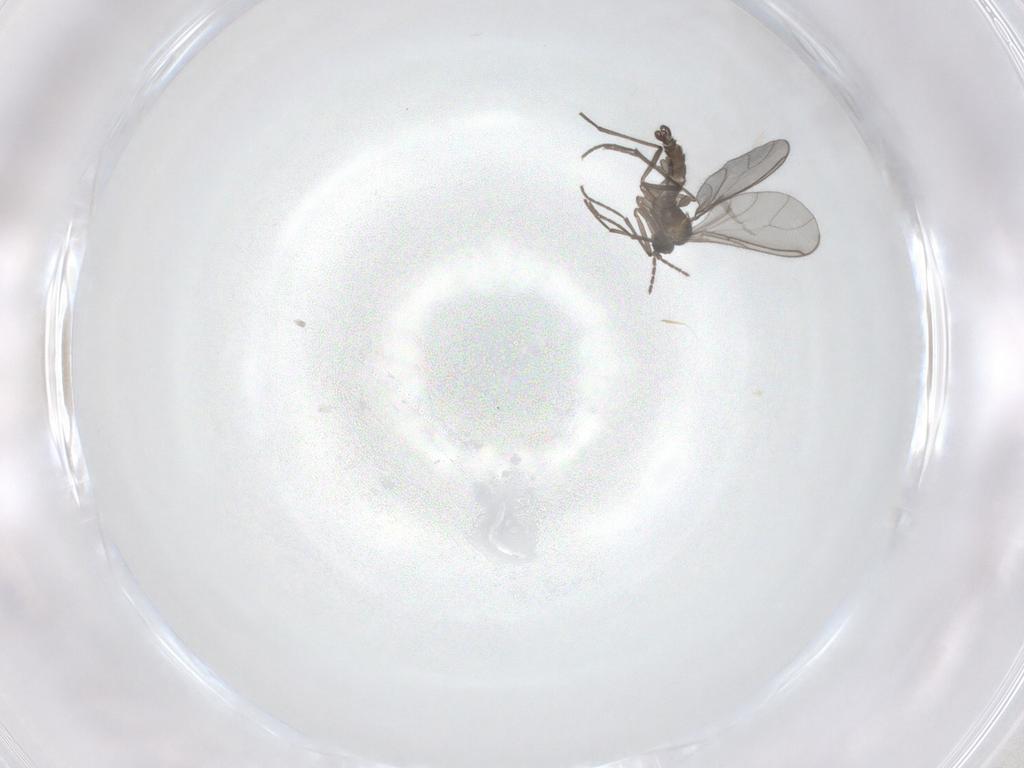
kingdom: Animalia
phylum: Arthropoda
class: Insecta
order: Diptera
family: Chironomidae
